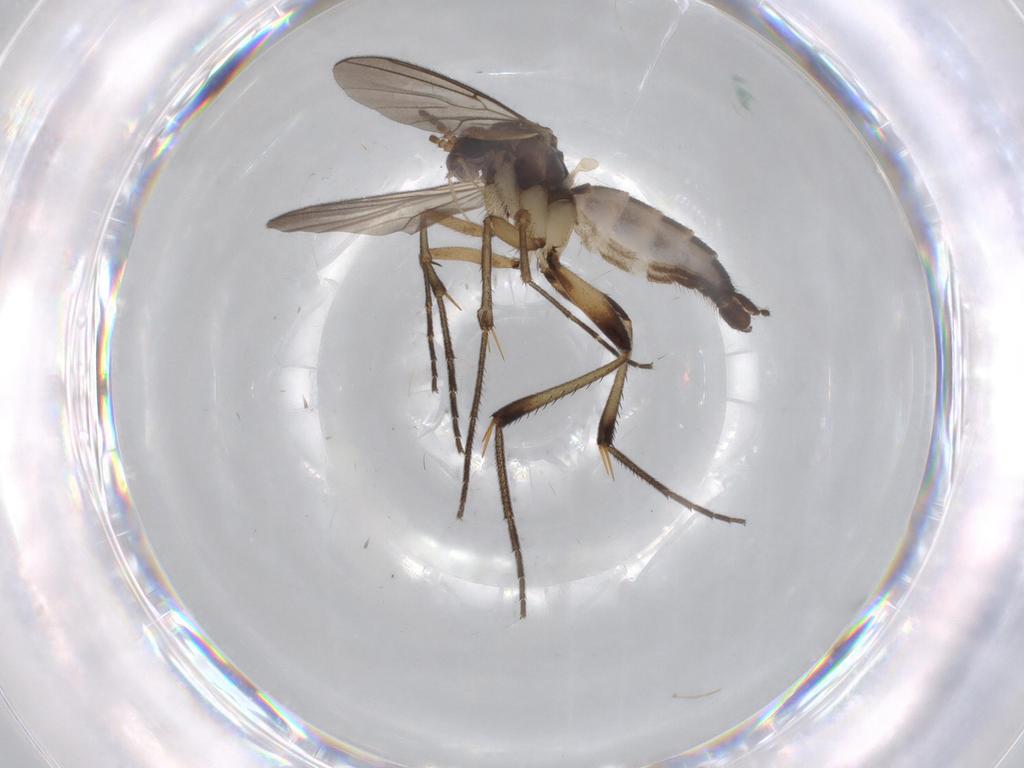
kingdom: Animalia
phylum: Arthropoda
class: Insecta
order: Diptera
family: Mycetophilidae
